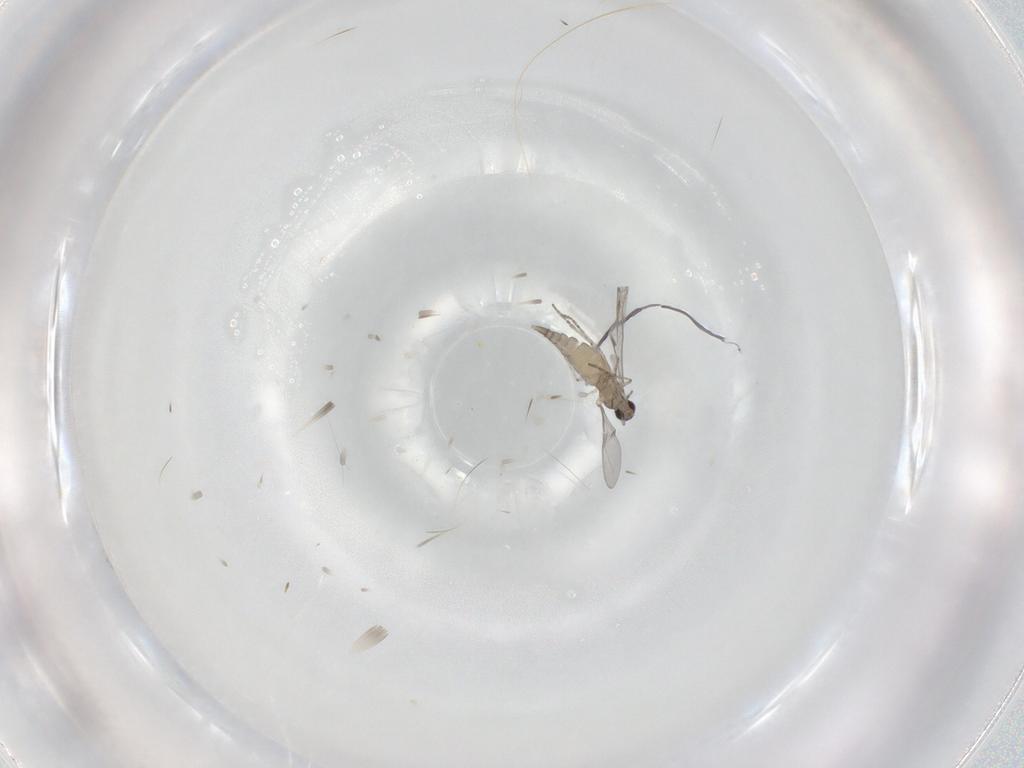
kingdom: Animalia
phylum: Arthropoda
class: Insecta
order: Diptera
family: Cecidomyiidae
